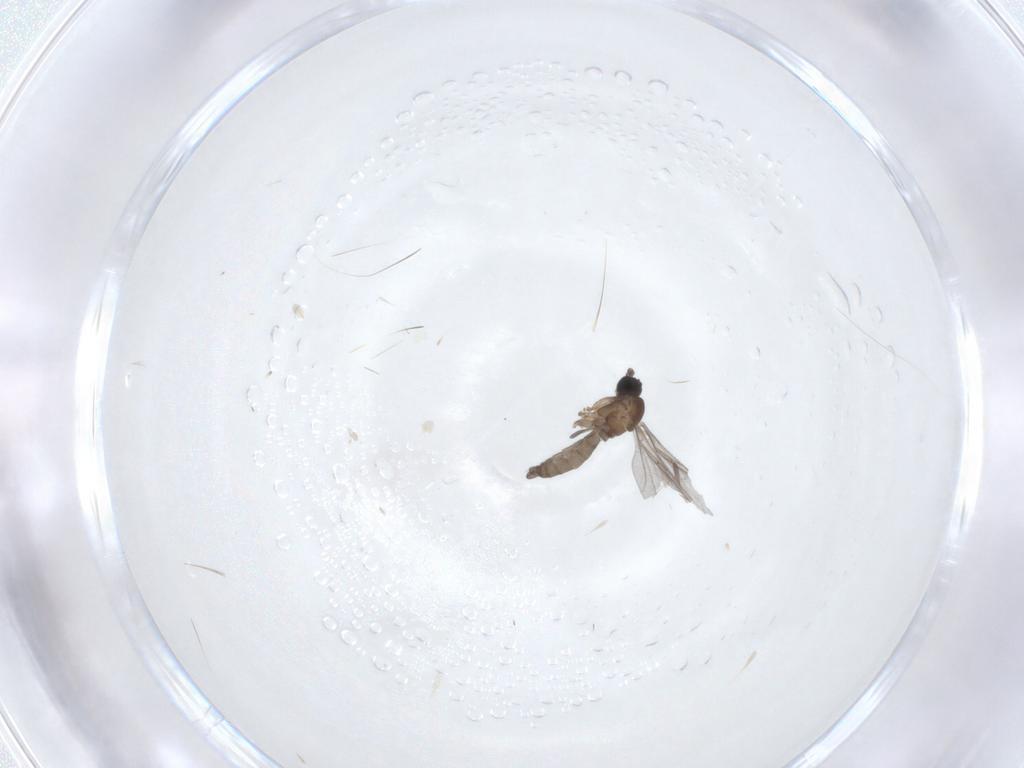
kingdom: Animalia
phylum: Arthropoda
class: Insecta
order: Diptera
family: Sciaridae
